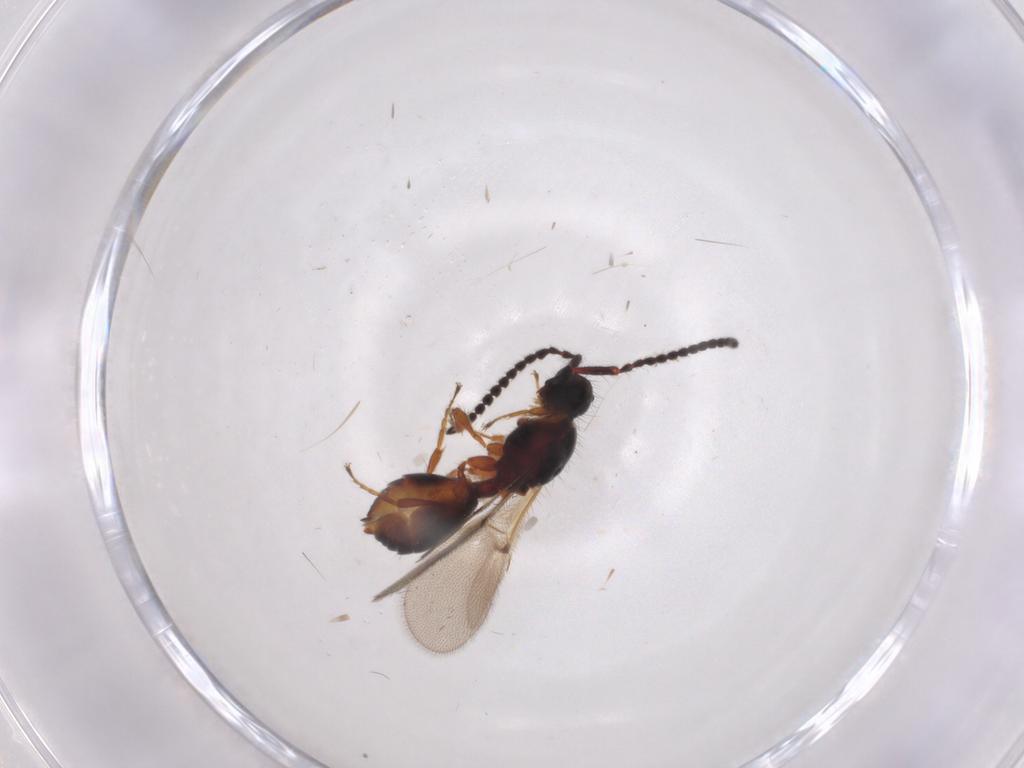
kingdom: Animalia
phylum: Arthropoda
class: Insecta
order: Hymenoptera
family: Diapriidae
